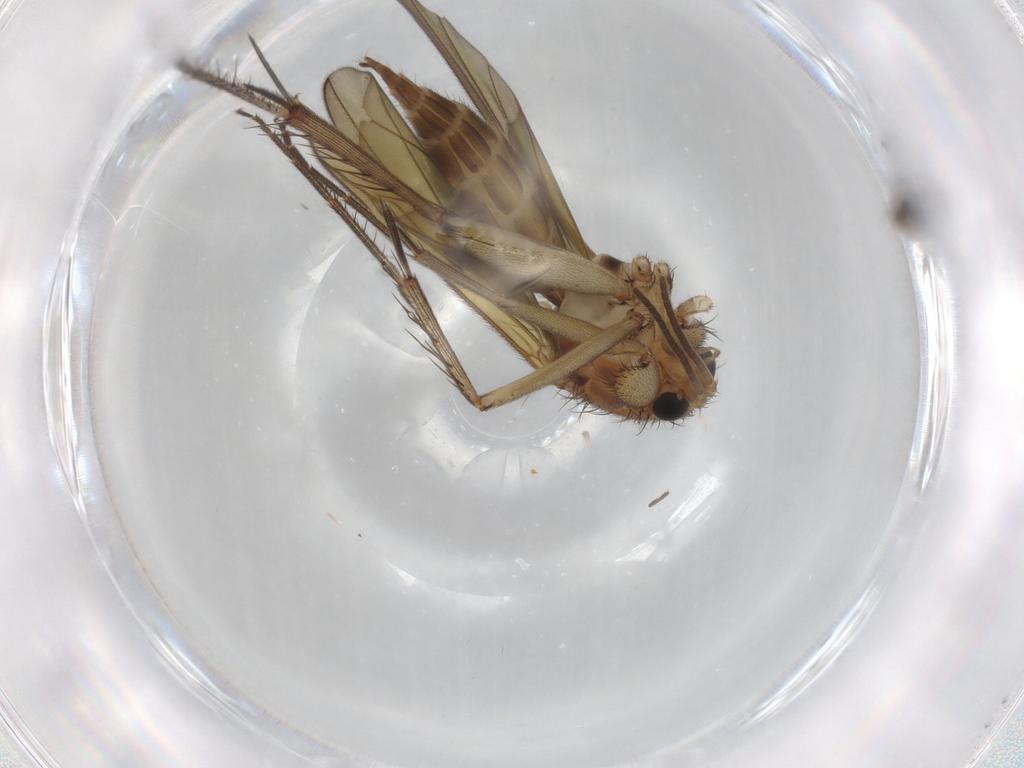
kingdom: Animalia
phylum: Arthropoda
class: Insecta
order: Diptera
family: Mycetophilidae
